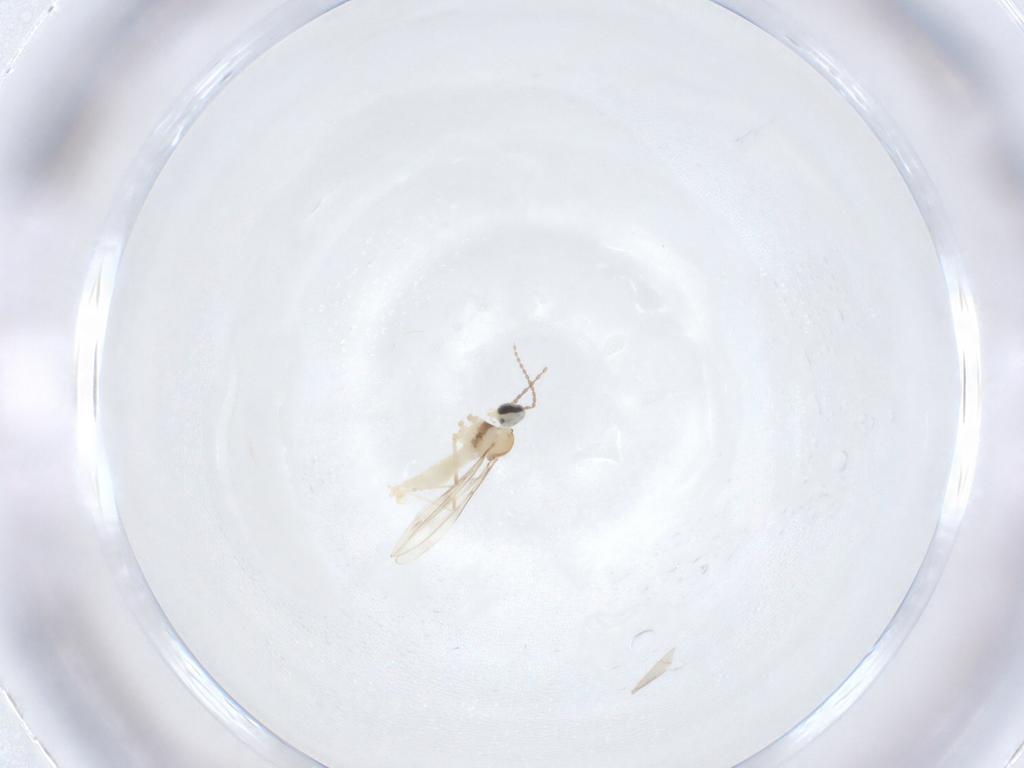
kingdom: Animalia
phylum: Arthropoda
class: Insecta
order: Diptera
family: Cecidomyiidae
